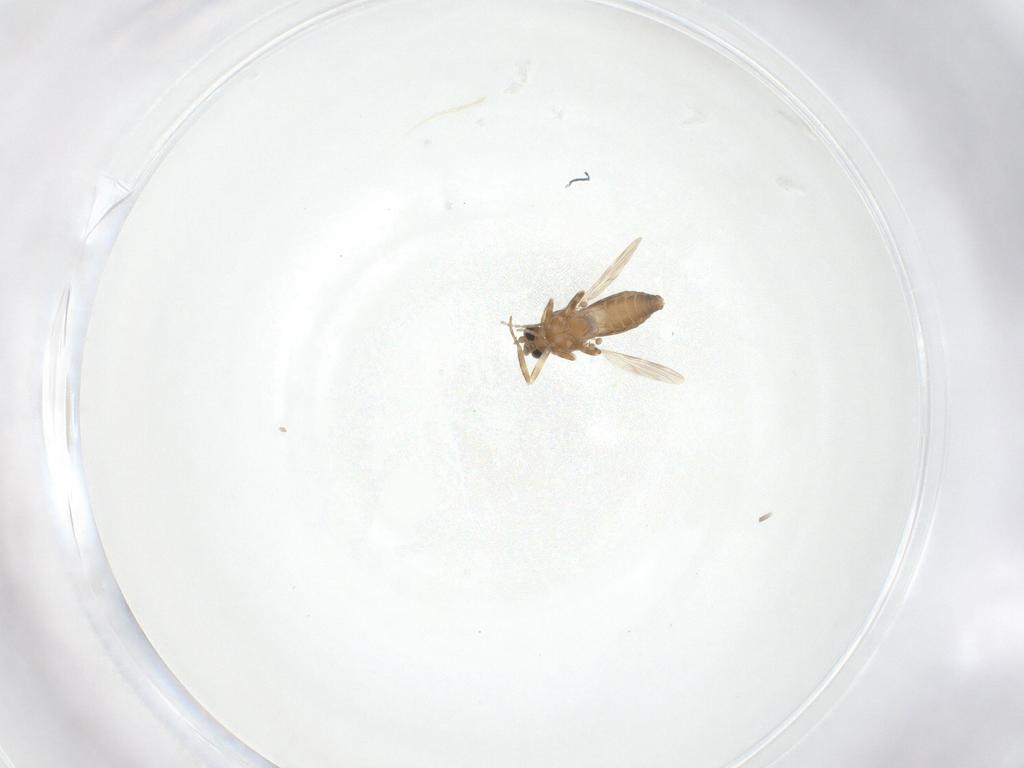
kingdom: Animalia
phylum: Arthropoda
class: Insecta
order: Diptera
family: Ceratopogonidae
